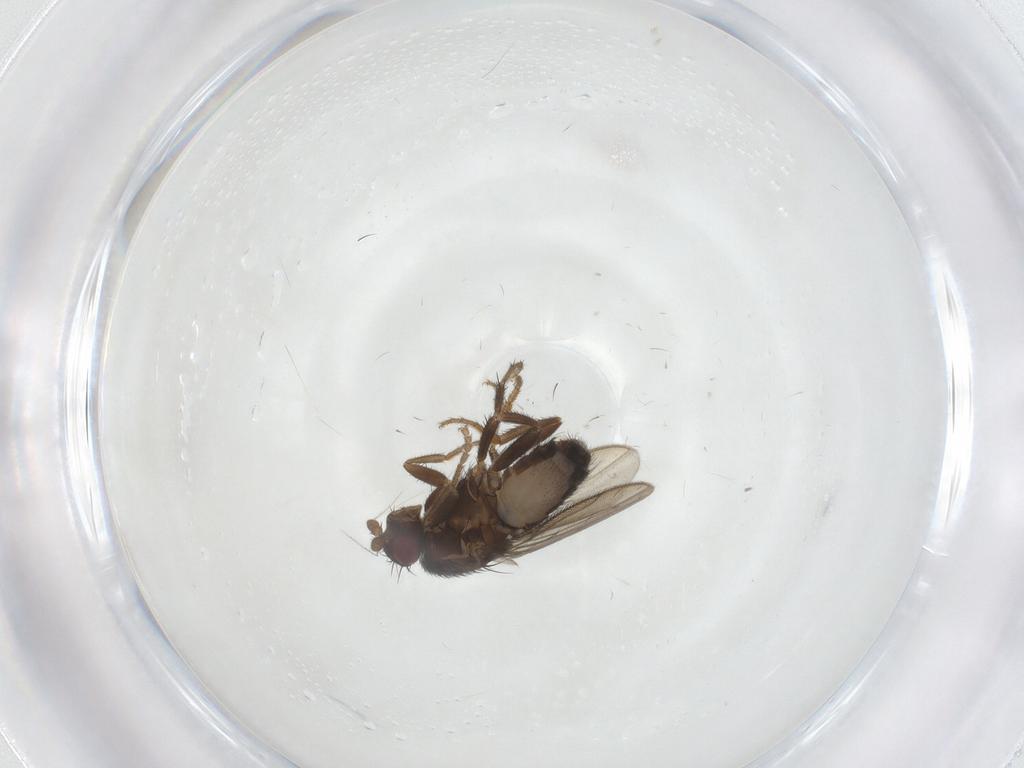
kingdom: Animalia
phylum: Arthropoda
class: Insecta
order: Diptera
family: Sphaeroceridae
